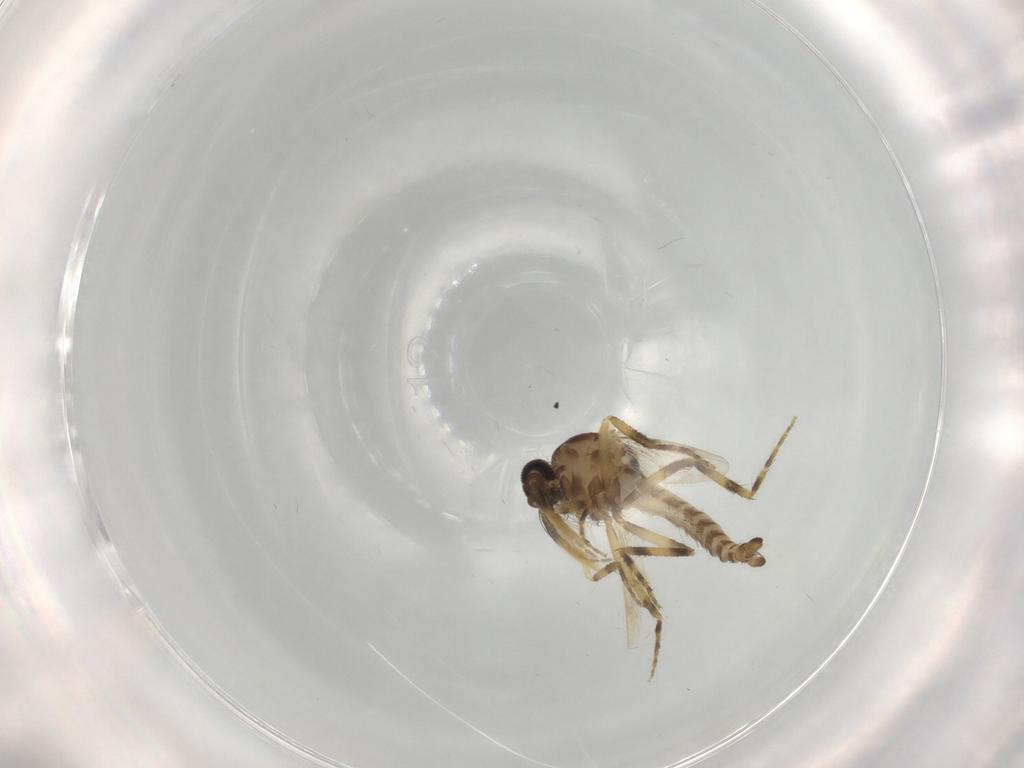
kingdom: Animalia
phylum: Arthropoda
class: Insecta
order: Diptera
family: Ceratopogonidae
